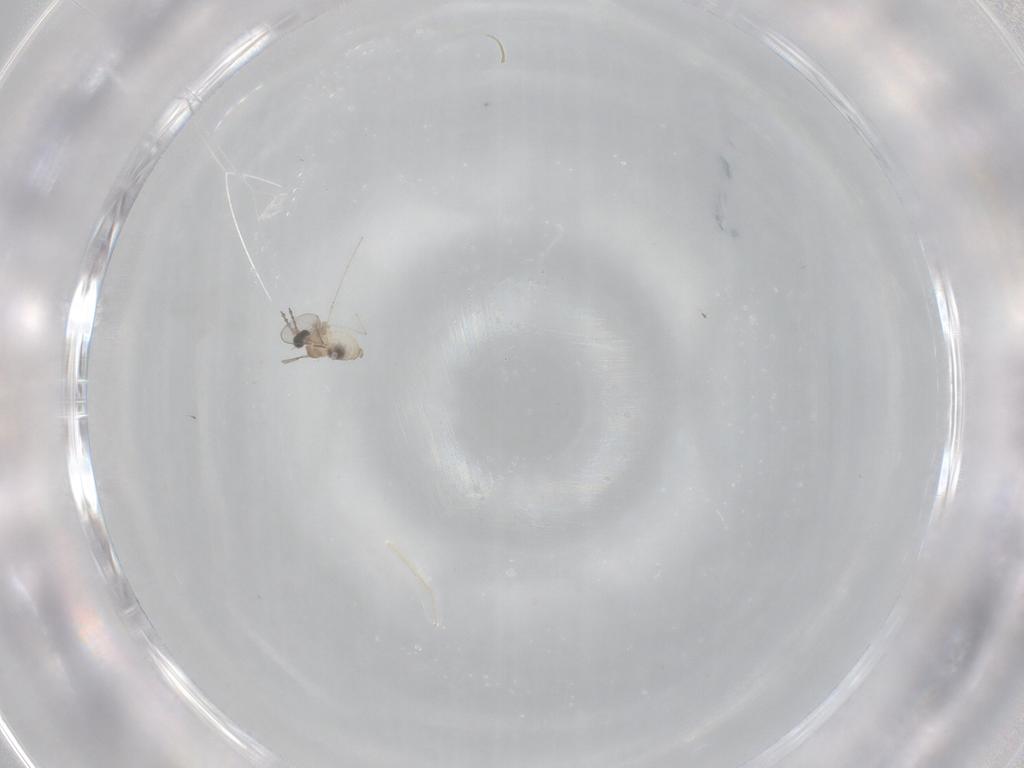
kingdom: Animalia
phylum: Arthropoda
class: Insecta
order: Diptera
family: Cecidomyiidae
